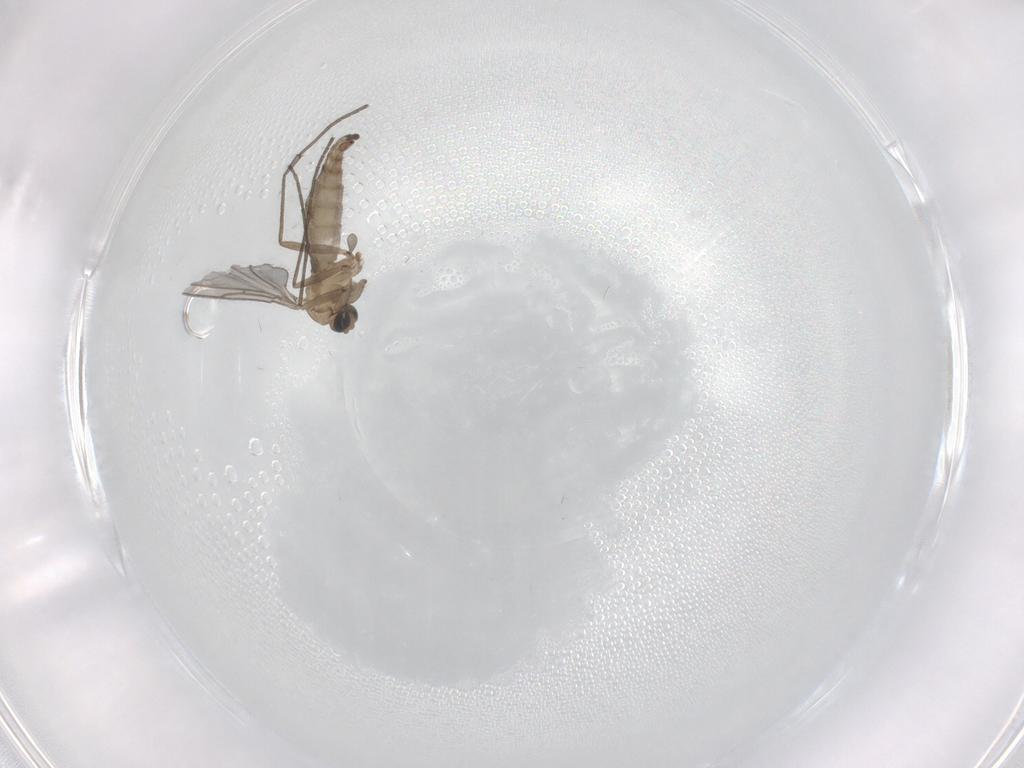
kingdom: Animalia
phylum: Arthropoda
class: Insecta
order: Diptera
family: Sciaridae
